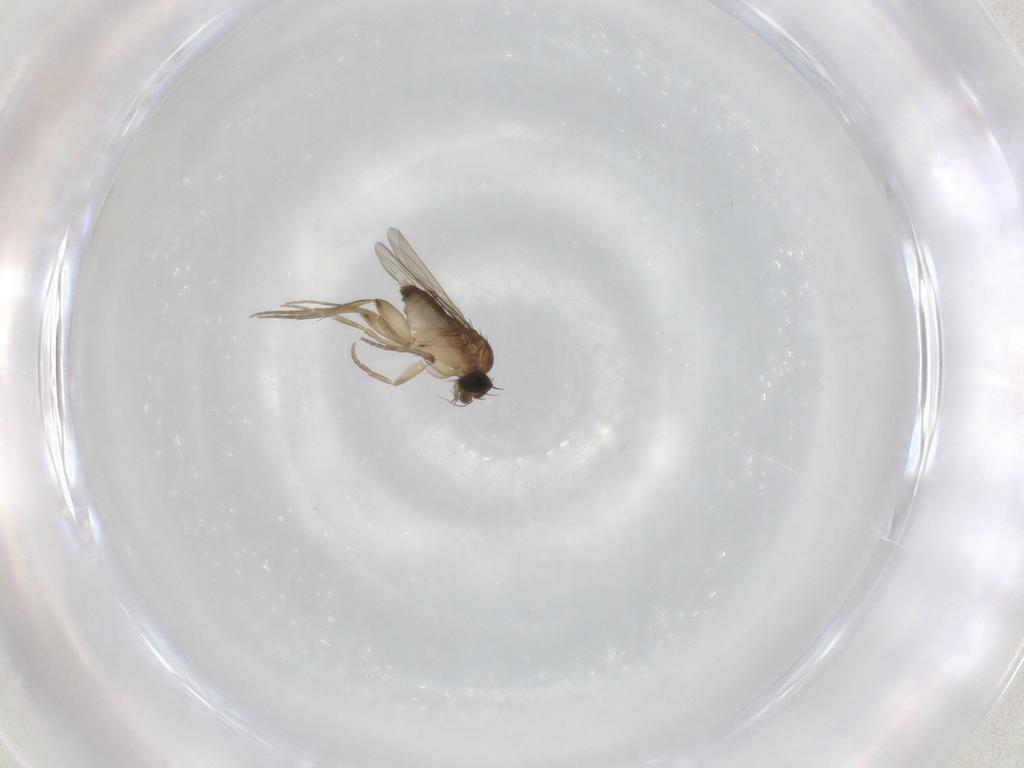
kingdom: Animalia
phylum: Arthropoda
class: Insecta
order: Diptera
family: Phoridae
